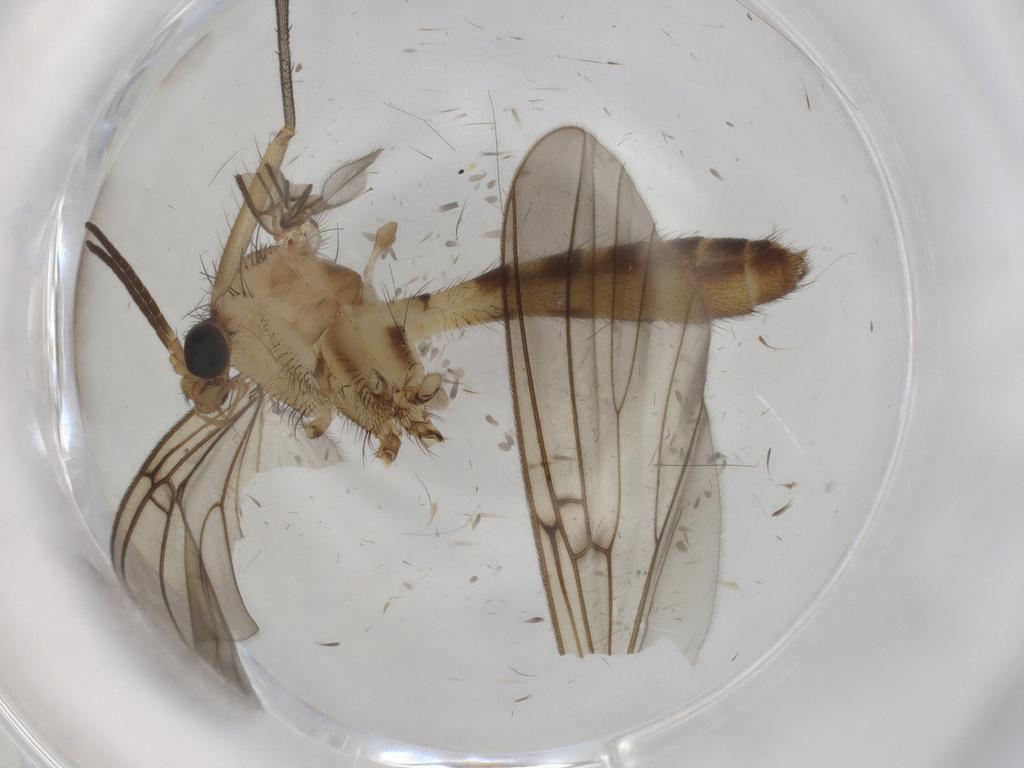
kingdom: Animalia
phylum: Arthropoda
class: Insecta
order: Diptera
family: Mycetophilidae
